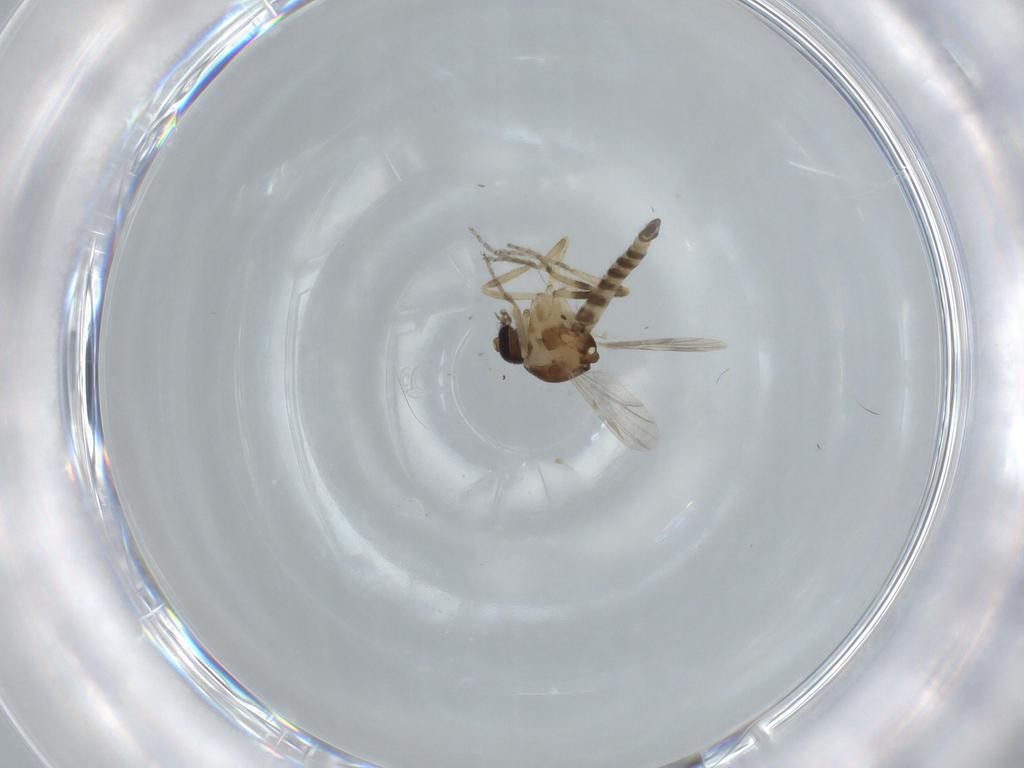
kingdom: Animalia
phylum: Arthropoda
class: Insecta
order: Diptera
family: Ceratopogonidae
